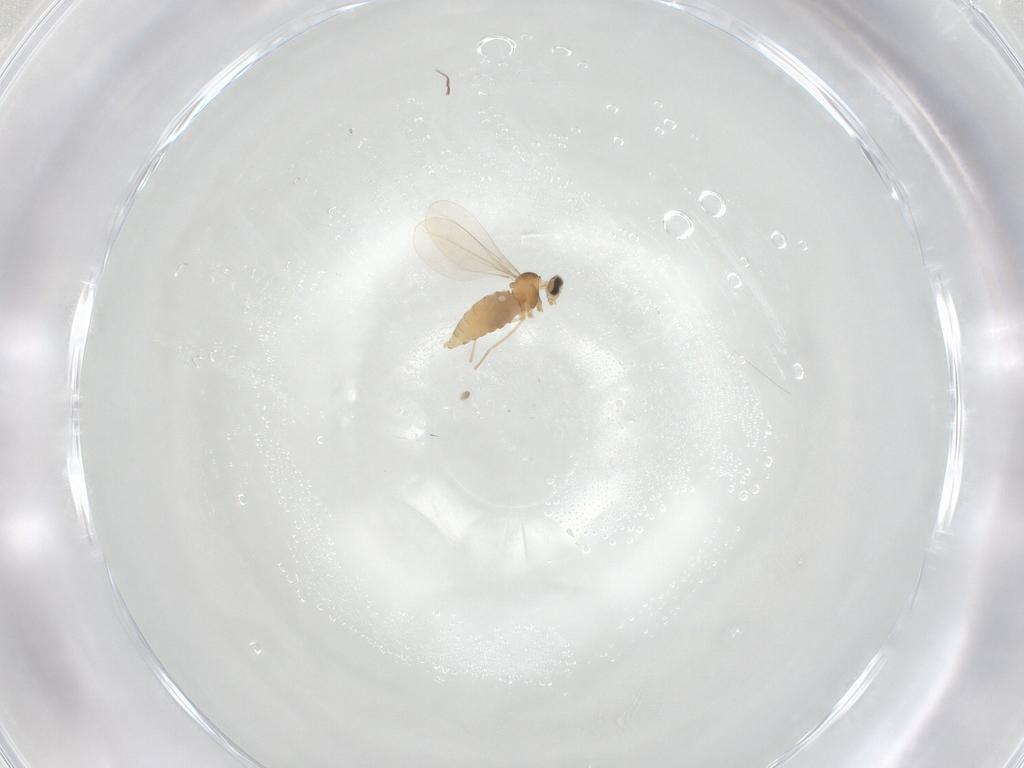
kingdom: Animalia
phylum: Arthropoda
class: Insecta
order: Diptera
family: Cecidomyiidae
